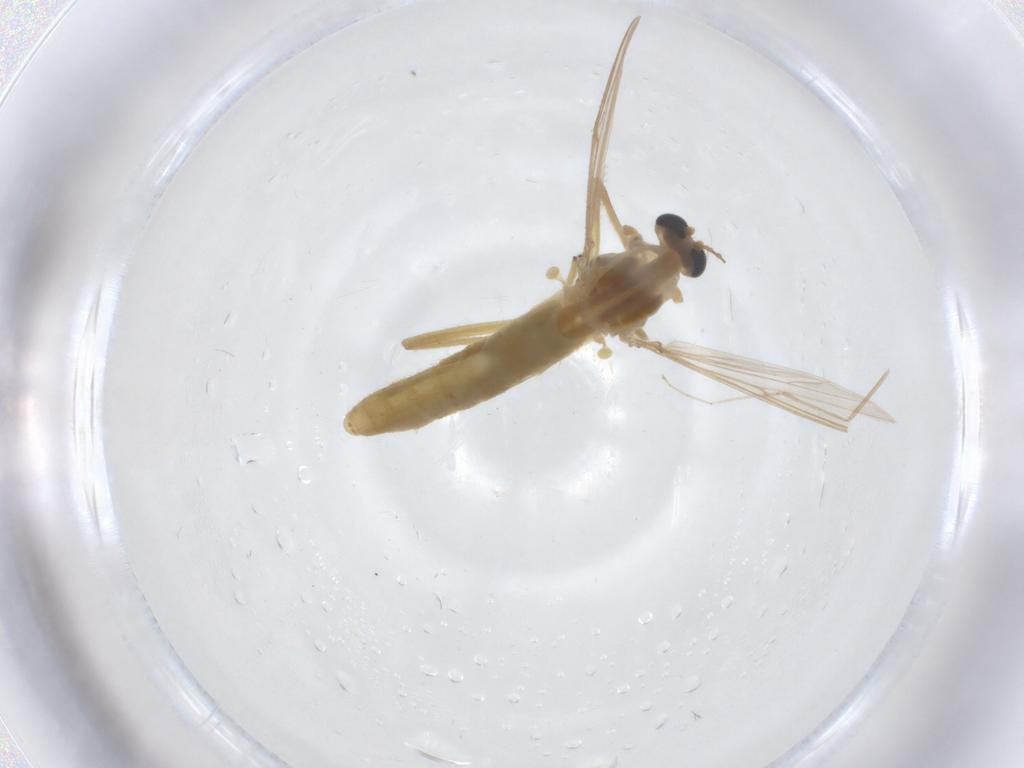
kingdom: Animalia
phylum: Arthropoda
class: Insecta
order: Diptera
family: Chironomidae
